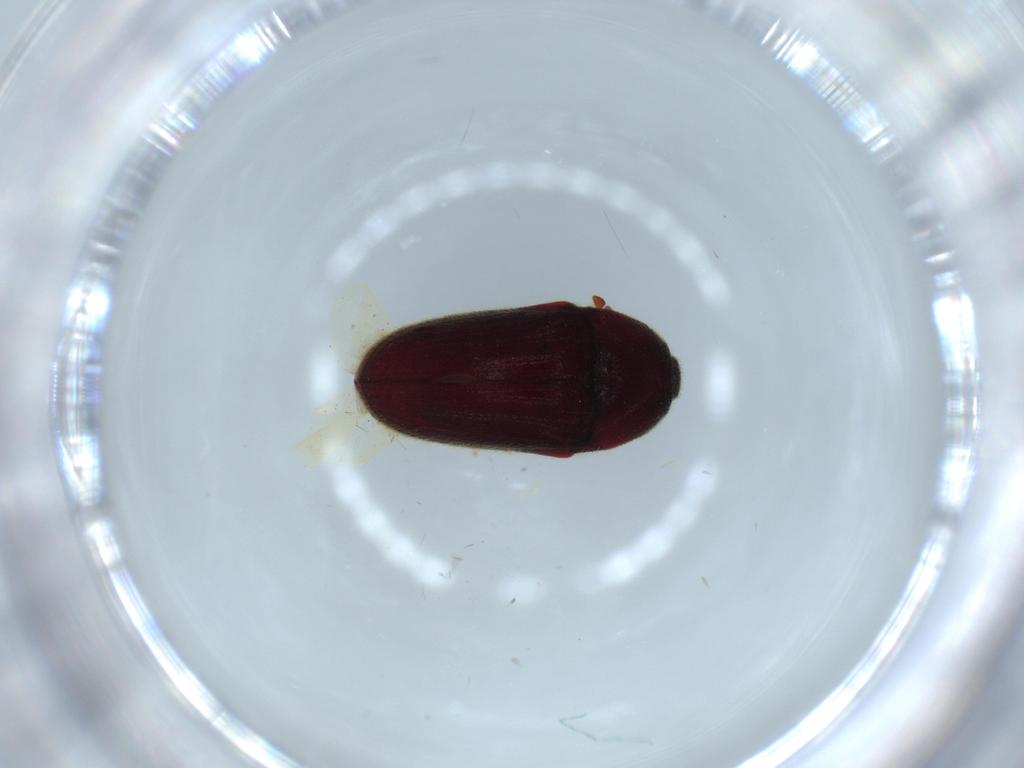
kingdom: Animalia
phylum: Arthropoda
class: Insecta
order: Coleoptera
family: Throscidae
